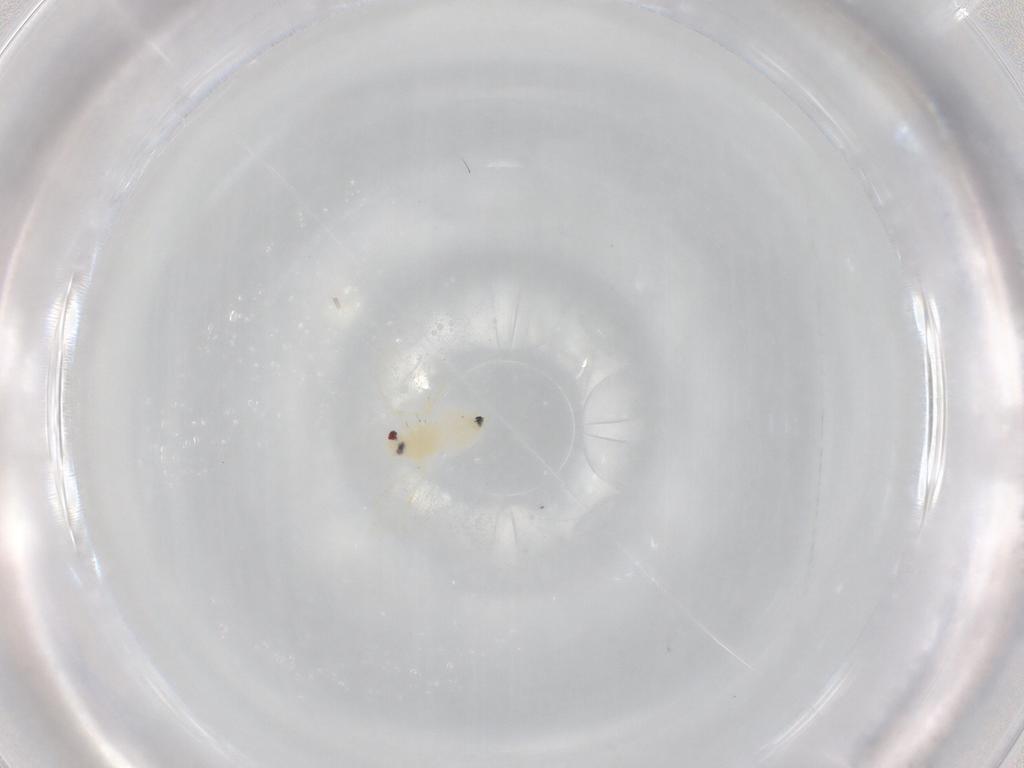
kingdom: Animalia
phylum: Arthropoda
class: Insecta
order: Hemiptera
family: Aleyrodidae
